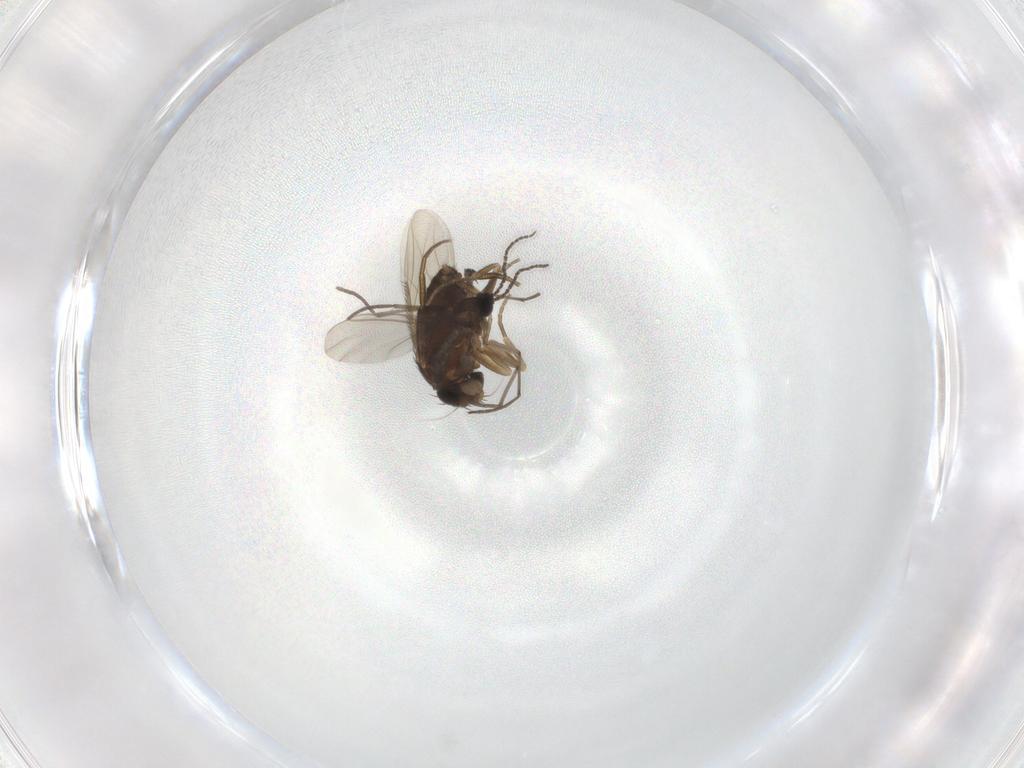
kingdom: Animalia
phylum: Arthropoda
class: Insecta
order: Diptera
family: Phoridae
